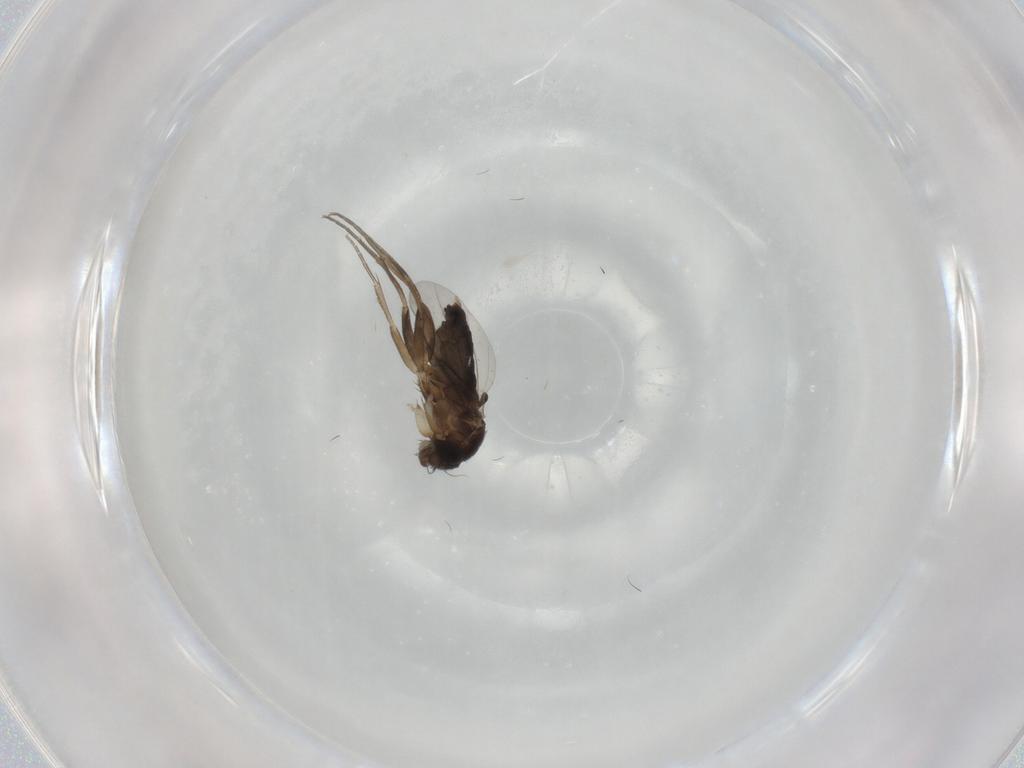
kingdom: Animalia
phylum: Arthropoda
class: Insecta
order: Diptera
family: Phoridae
